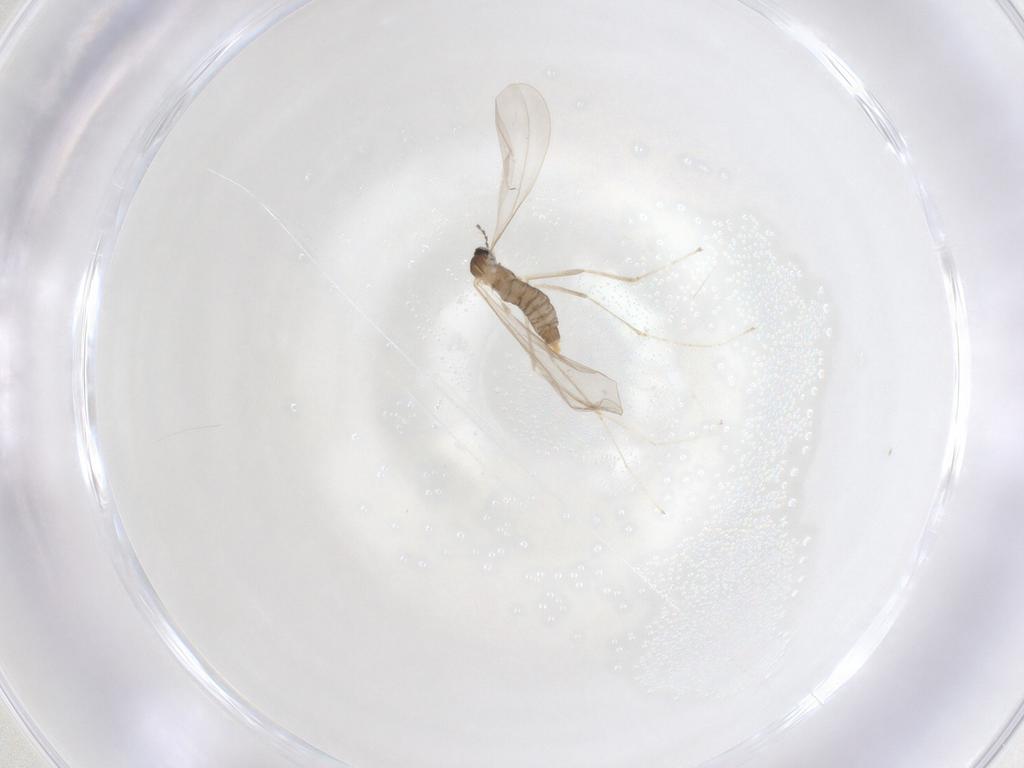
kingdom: Animalia
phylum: Arthropoda
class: Insecta
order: Diptera
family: Cecidomyiidae
